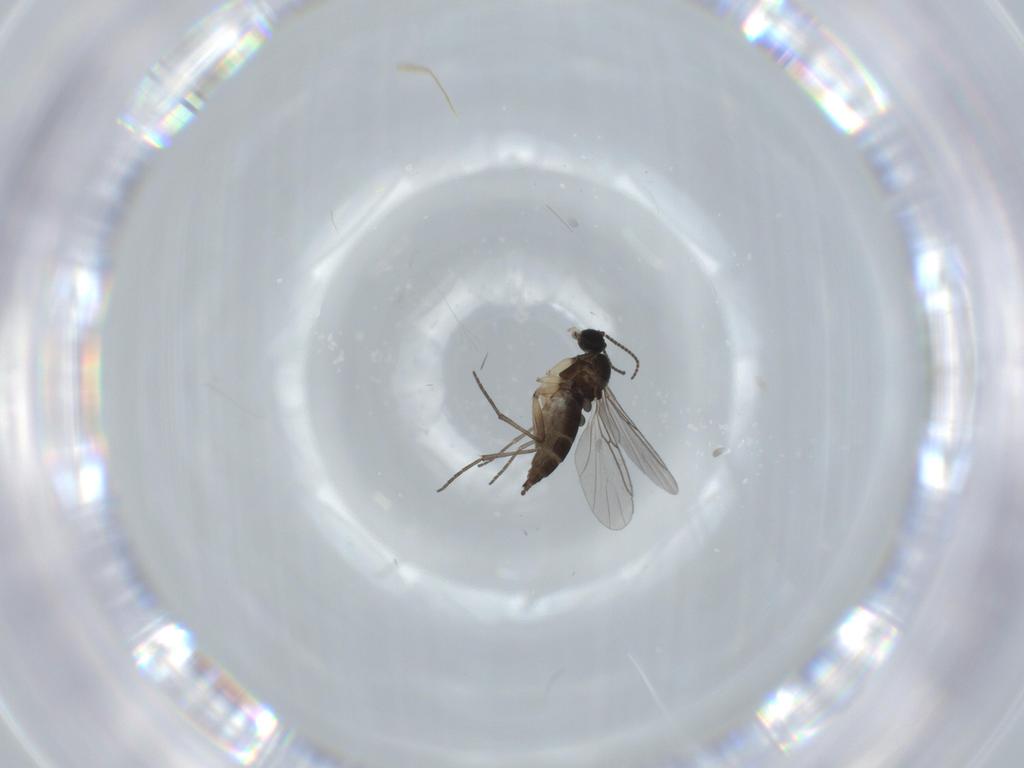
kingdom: Animalia
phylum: Arthropoda
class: Insecta
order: Diptera
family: Sciaridae
